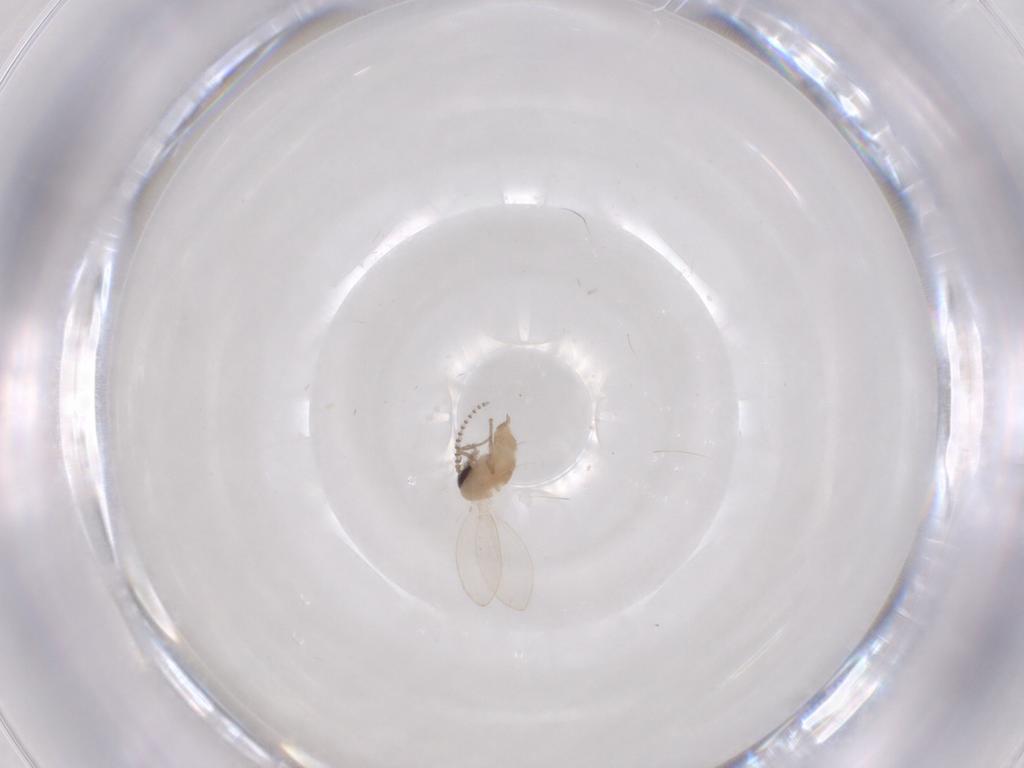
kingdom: Animalia
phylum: Arthropoda
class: Insecta
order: Diptera
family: Psychodidae
